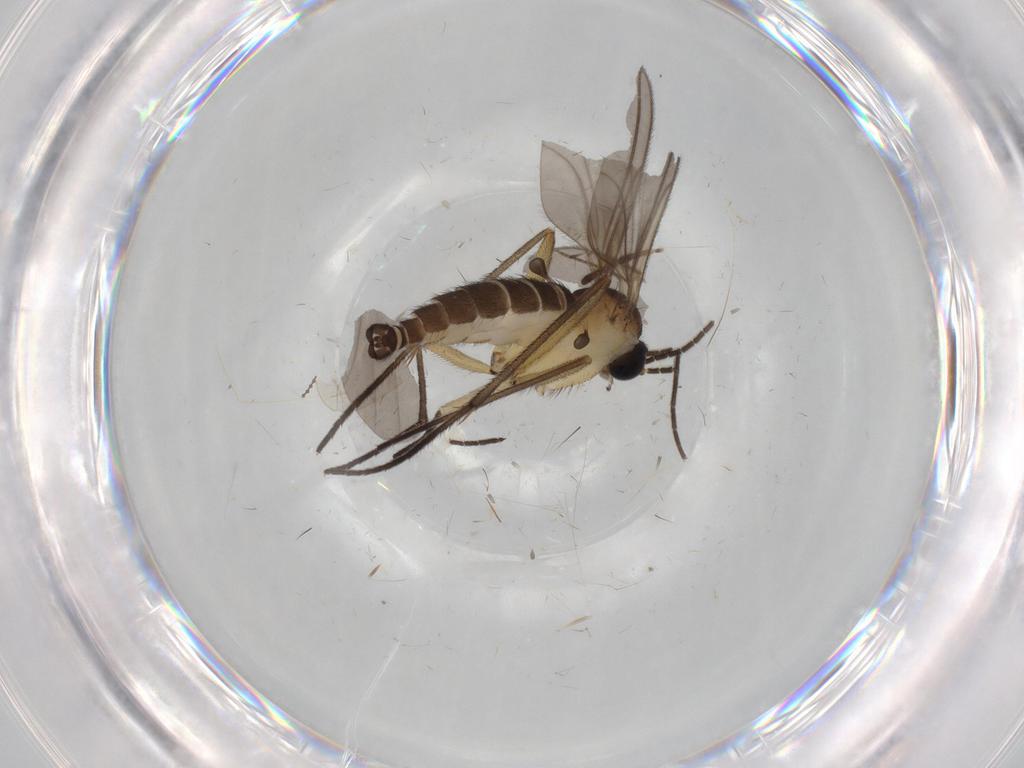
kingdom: Animalia
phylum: Arthropoda
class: Insecta
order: Diptera
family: Sciaridae
